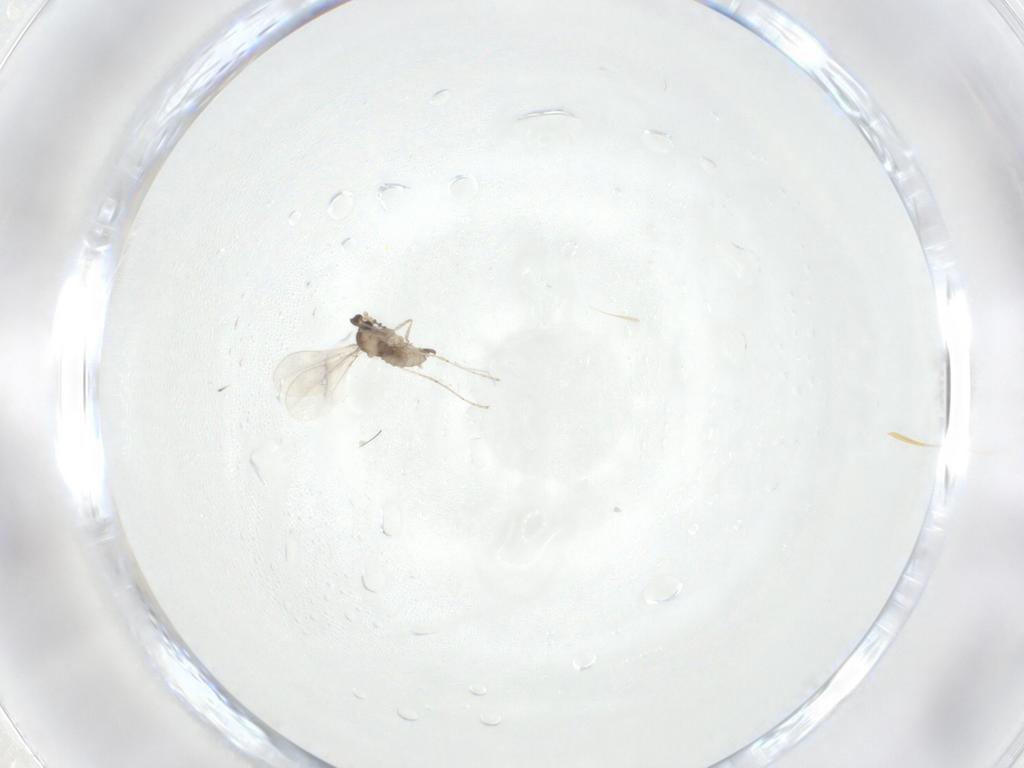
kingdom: Animalia
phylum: Arthropoda
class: Insecta
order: Diptera
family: Cecidomyiidae
